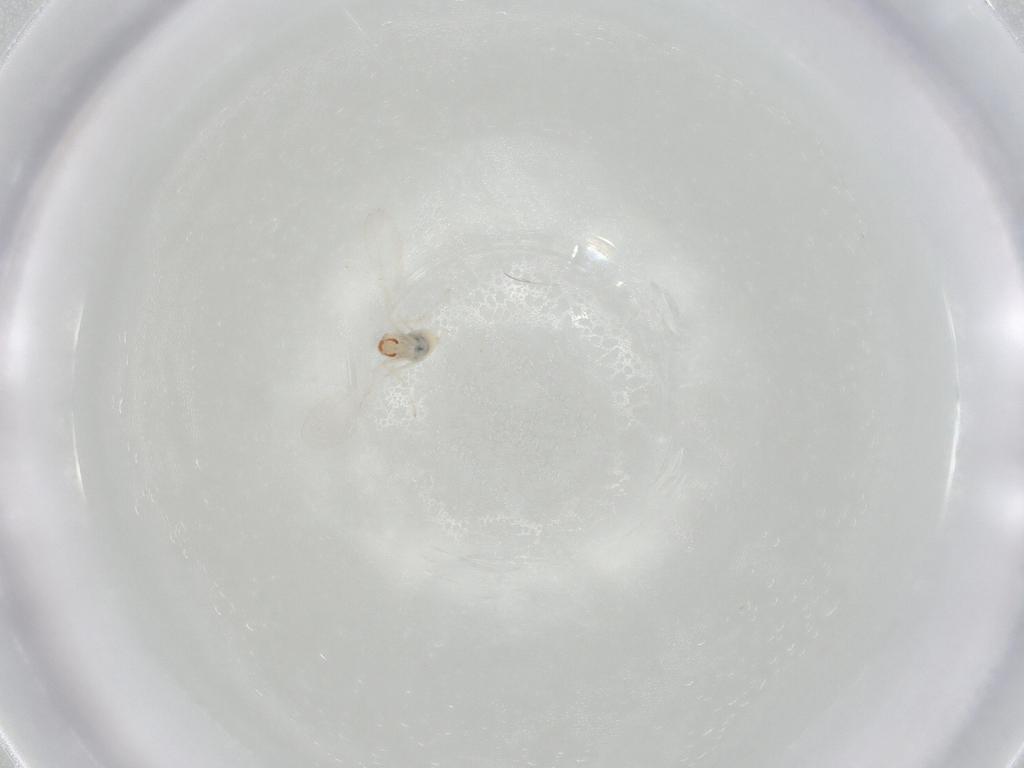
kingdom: Animalia
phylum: Arthropoda
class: Insecta
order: Diptera
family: Cecidomyiidae
